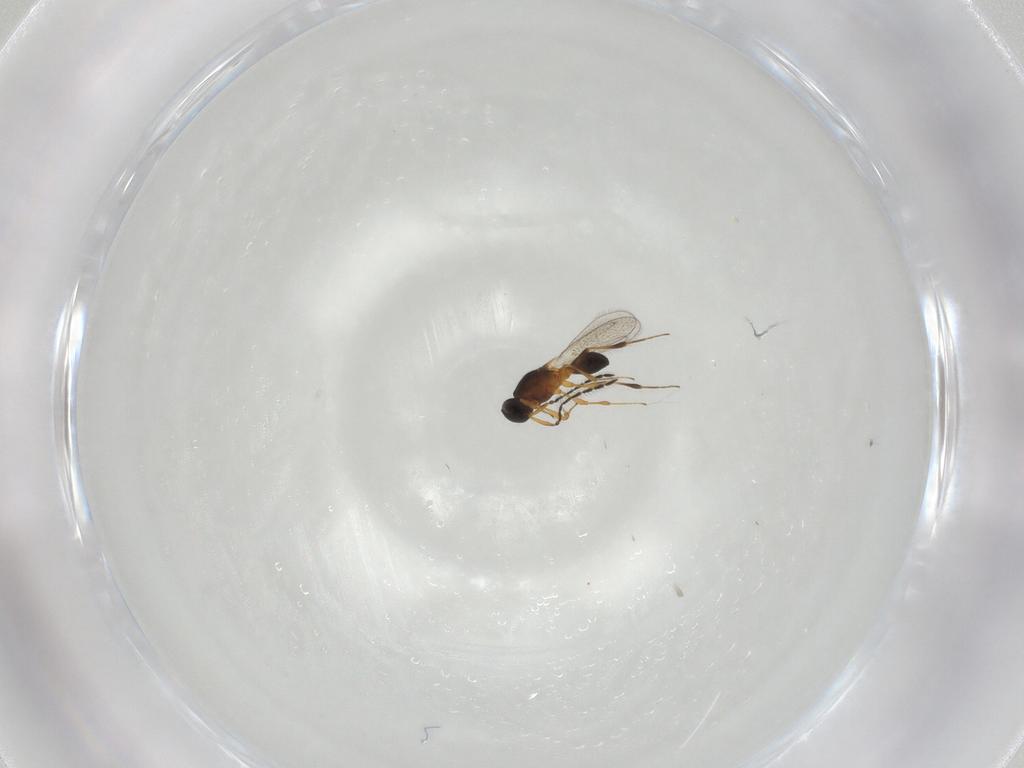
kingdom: Animalia
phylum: Arthropoda
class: Insecta
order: Hymenoptera
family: Platygastridae
